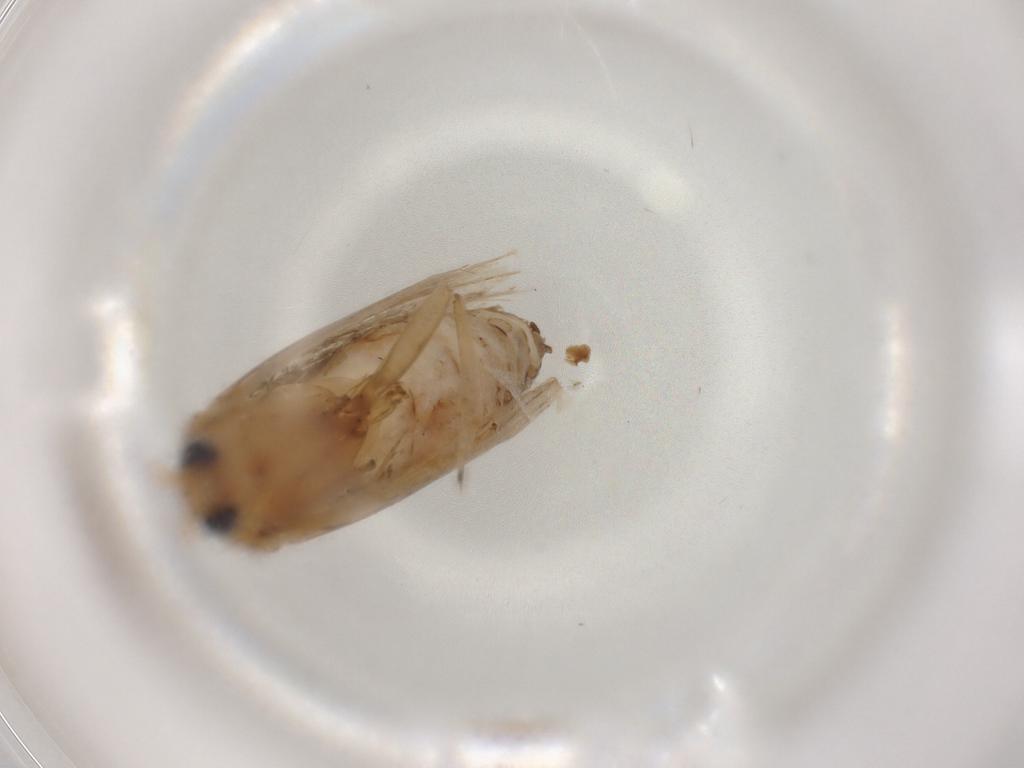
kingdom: Animalia
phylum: Arthropoda
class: Insecta
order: Lepidoptera
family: Tortricidae
